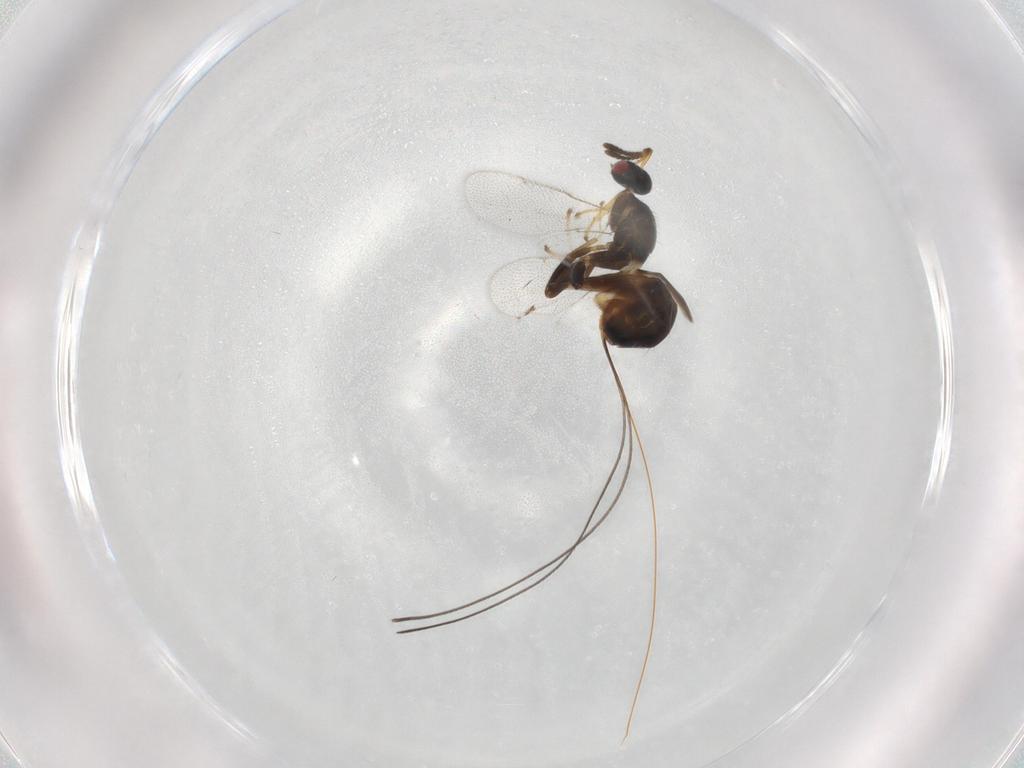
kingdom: Animalia
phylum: Arthropoda
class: Insecta
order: Hymenoptera
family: Torymidae
